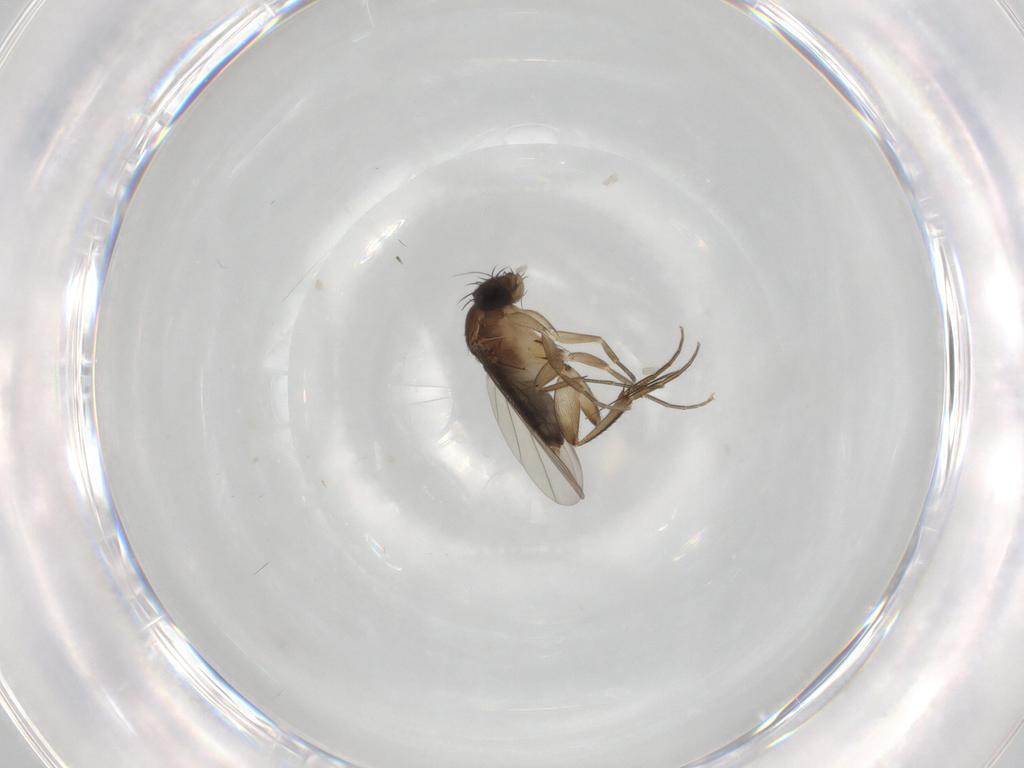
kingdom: Animalia
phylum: Arthropoda
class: Insecta
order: Diptera
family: Phoridae
